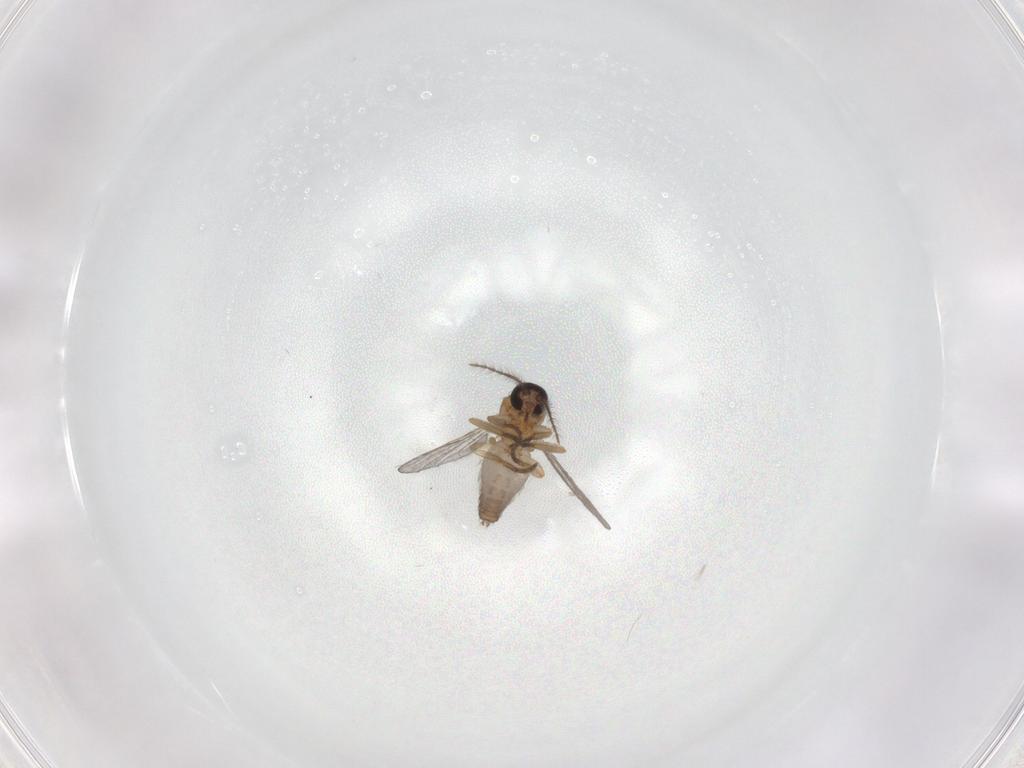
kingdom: Animalia
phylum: Arthropoda
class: Insecta
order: Diptera
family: Ceratopogonidae
